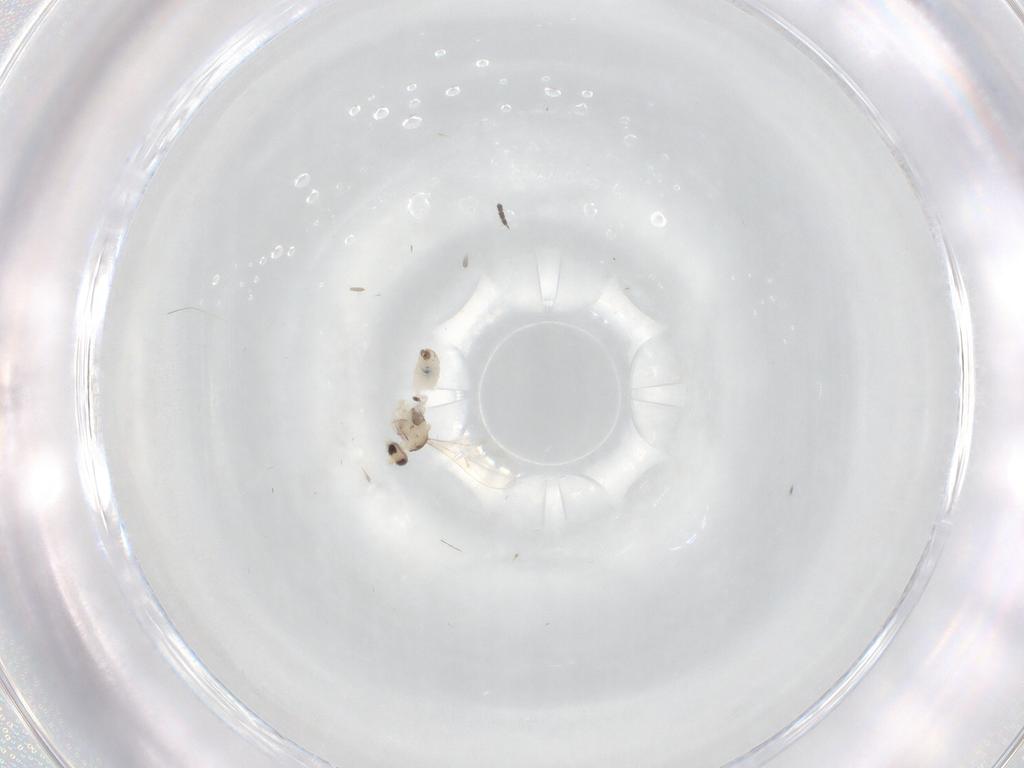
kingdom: Animalia
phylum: Arthropoda
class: Insecta
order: Diptera
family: Cecidomyiidae
